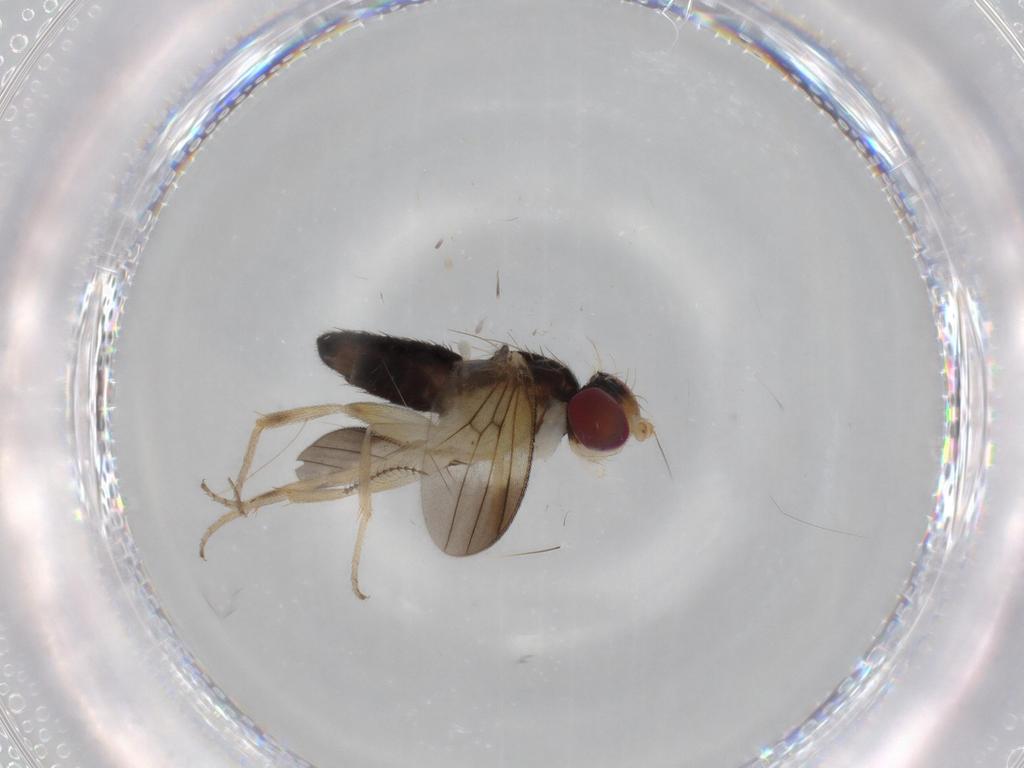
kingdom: Animalia
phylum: Arthropoda
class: Insecta
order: Diptera
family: Clusiidae
